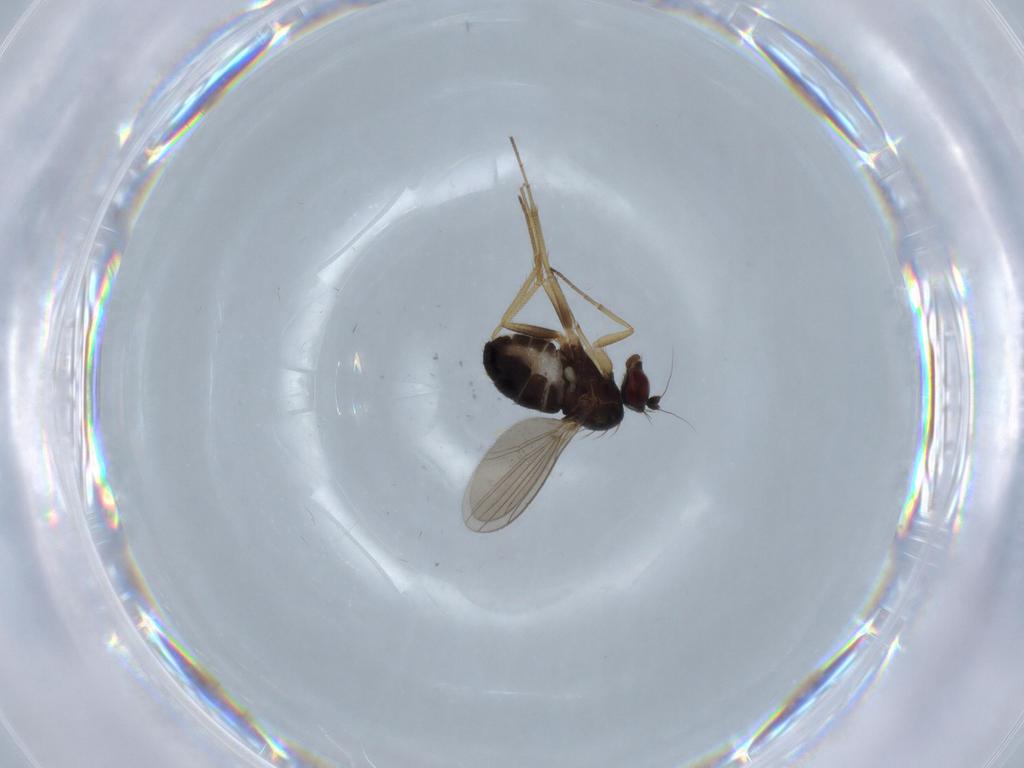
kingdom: Animalia
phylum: Arthropoda
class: Insecta
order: Diptera
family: Dolichopodidae
